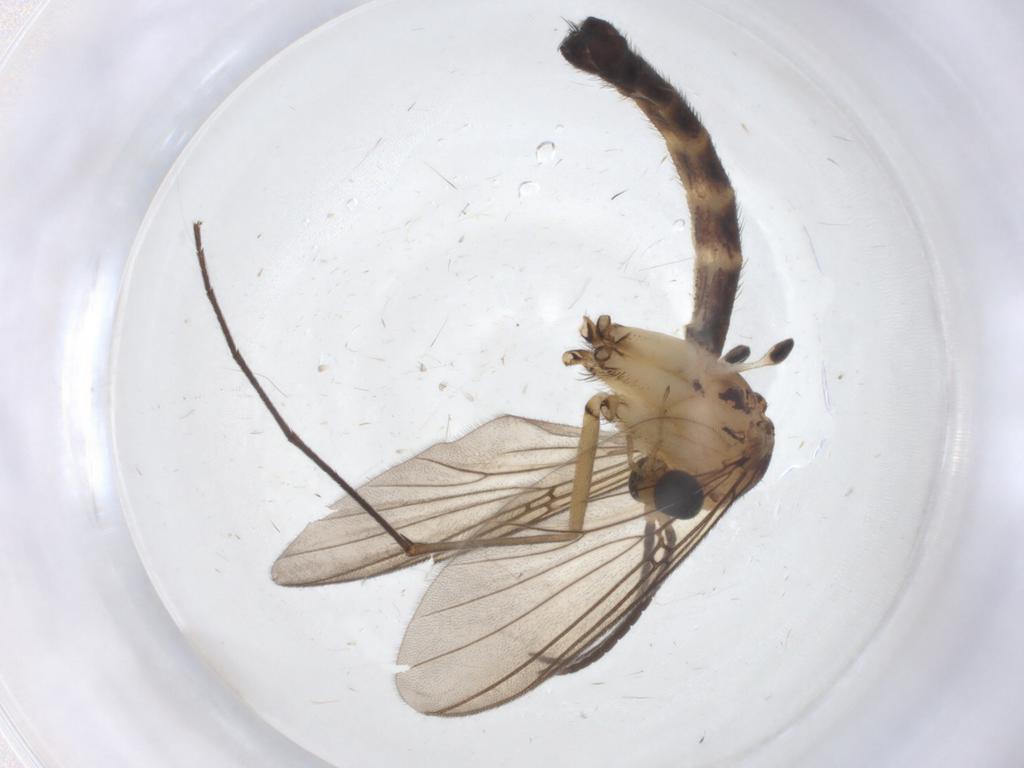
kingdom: Animalia
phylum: Arthropoda
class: Insecta
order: Diptera
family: Mycetophilidae
